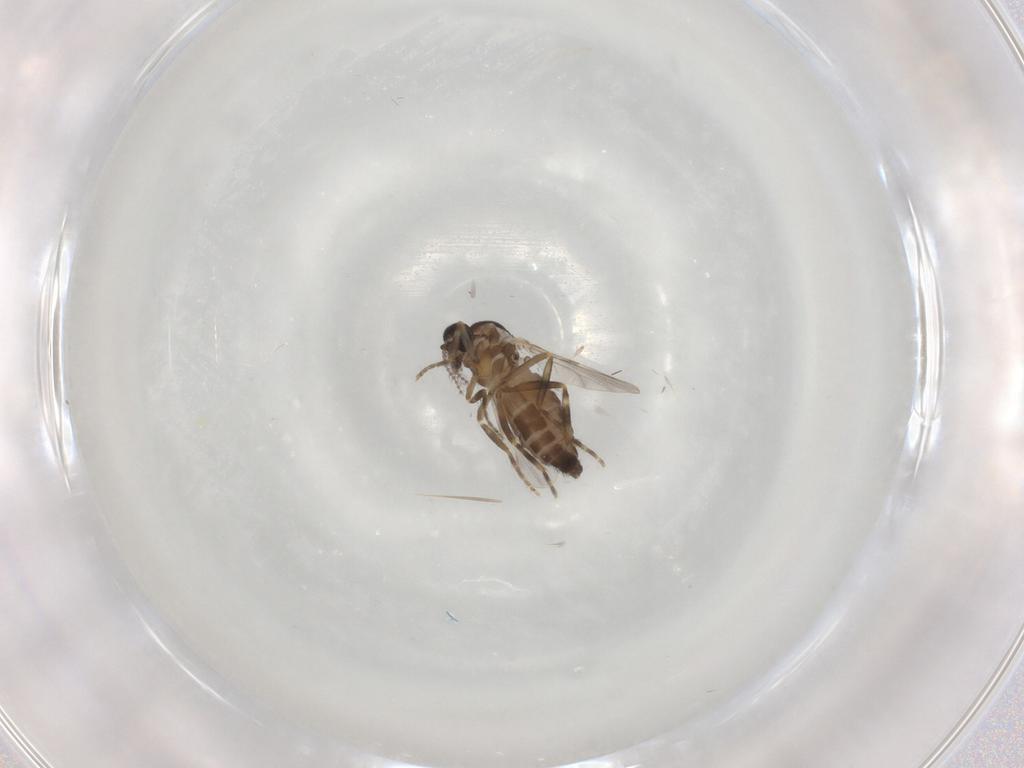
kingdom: Animalia
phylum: Arthropoda
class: Insecta
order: Diptera
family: Ceratopogonidae
